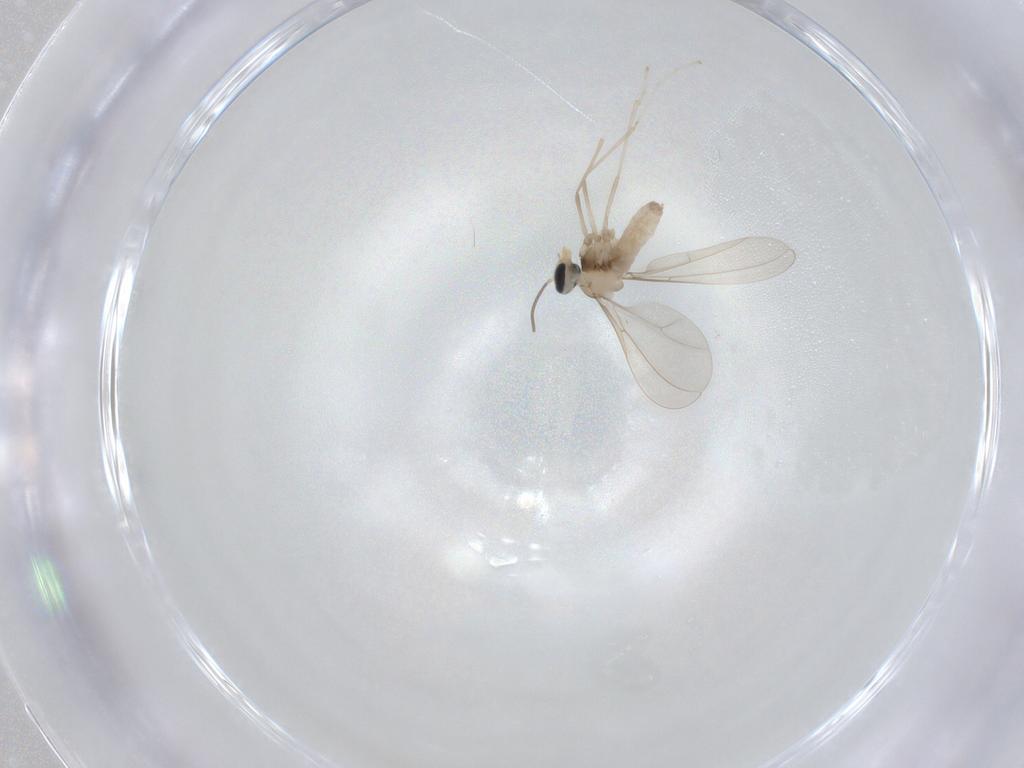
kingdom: Animalia
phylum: Arthropoda
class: Insecta
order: Diptera
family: Cecidomyiidae
